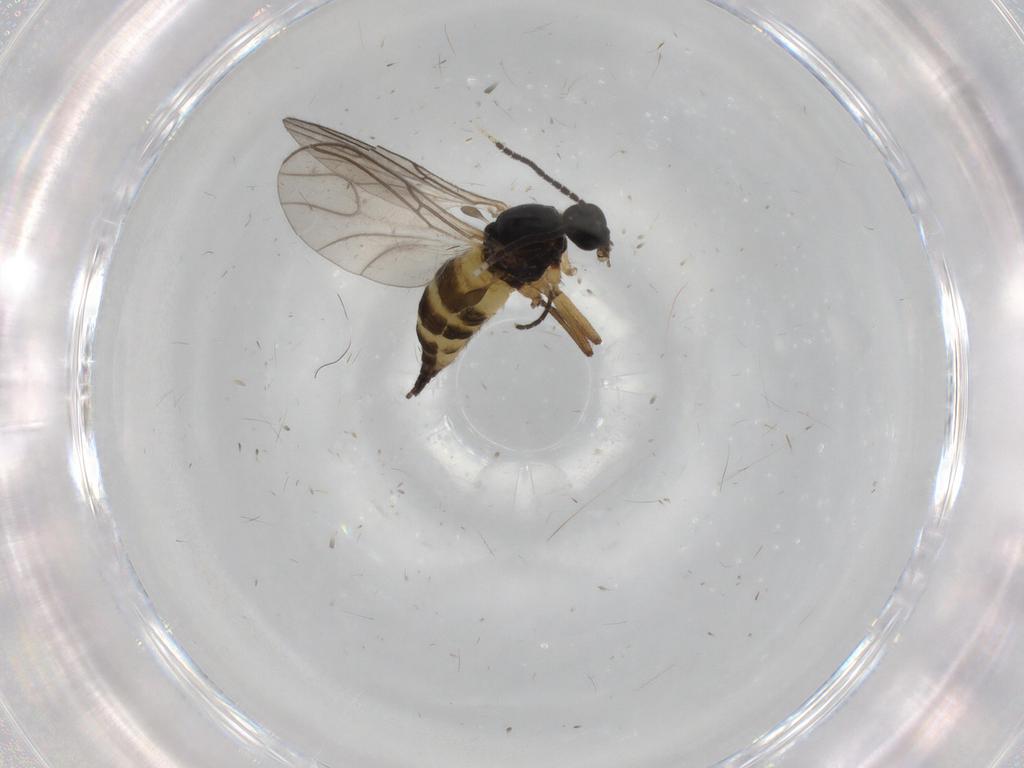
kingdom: Animalia
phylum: Arthropoda
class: Insecta
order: Diptera
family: Sciaridae
